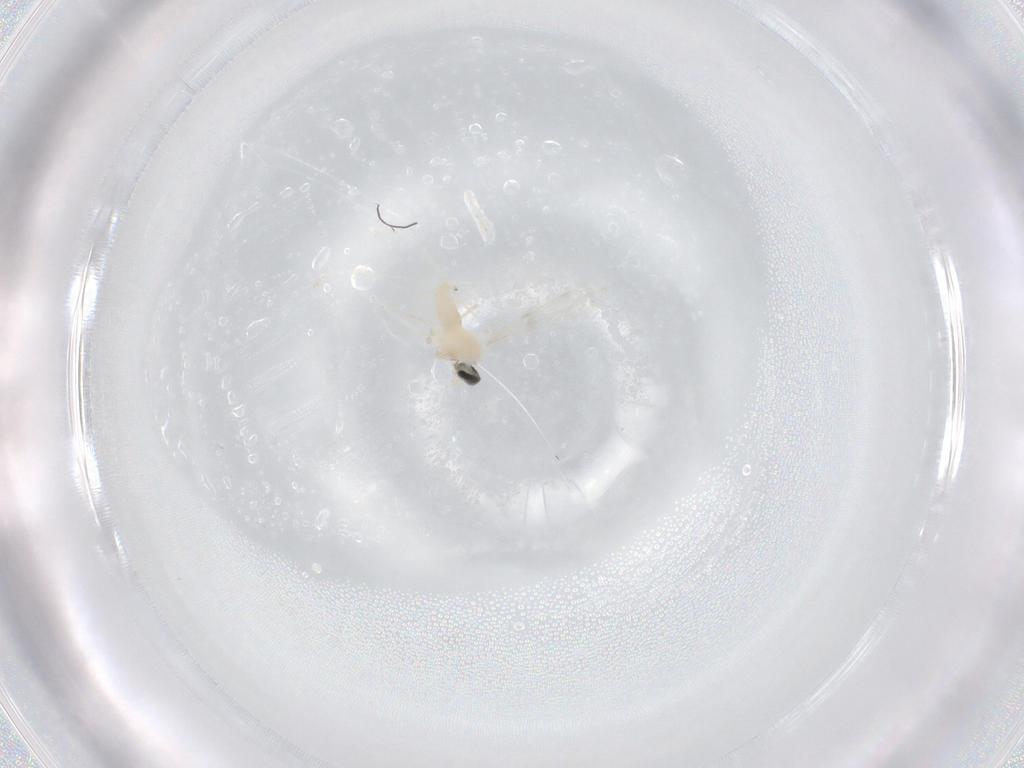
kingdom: Animalia
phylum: Arthropoda
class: Insecta
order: Diptera
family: Cecidomyiidae
